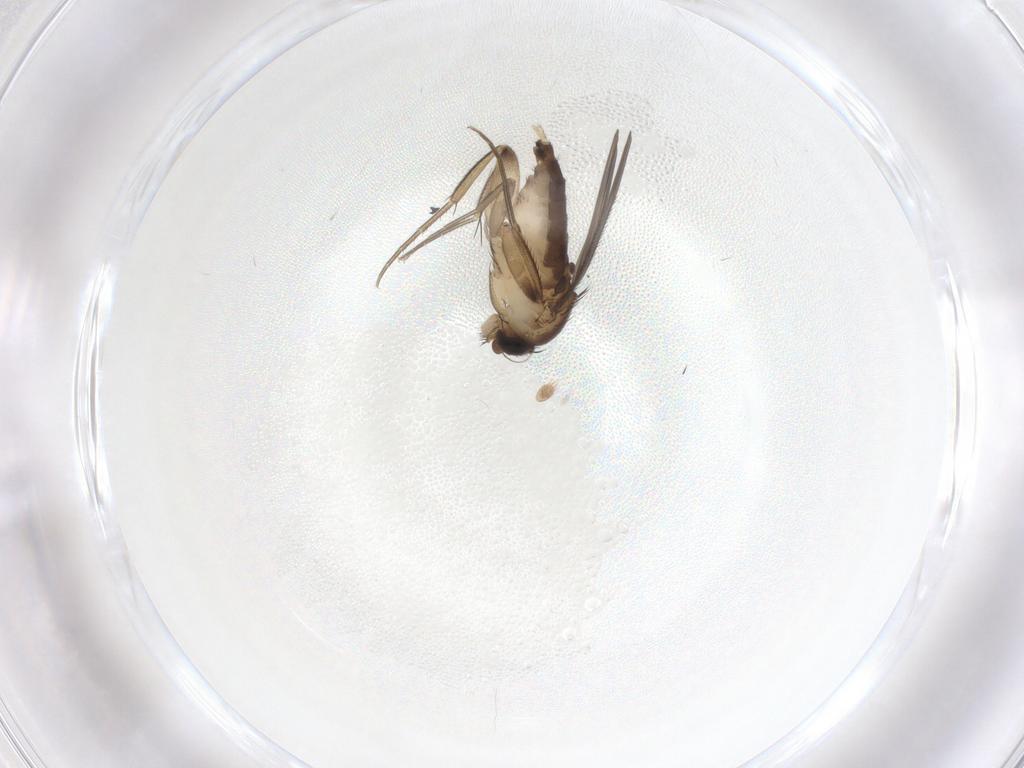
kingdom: Animalia
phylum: Arthropoda
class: Insecta
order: Diptera
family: Phoridae
